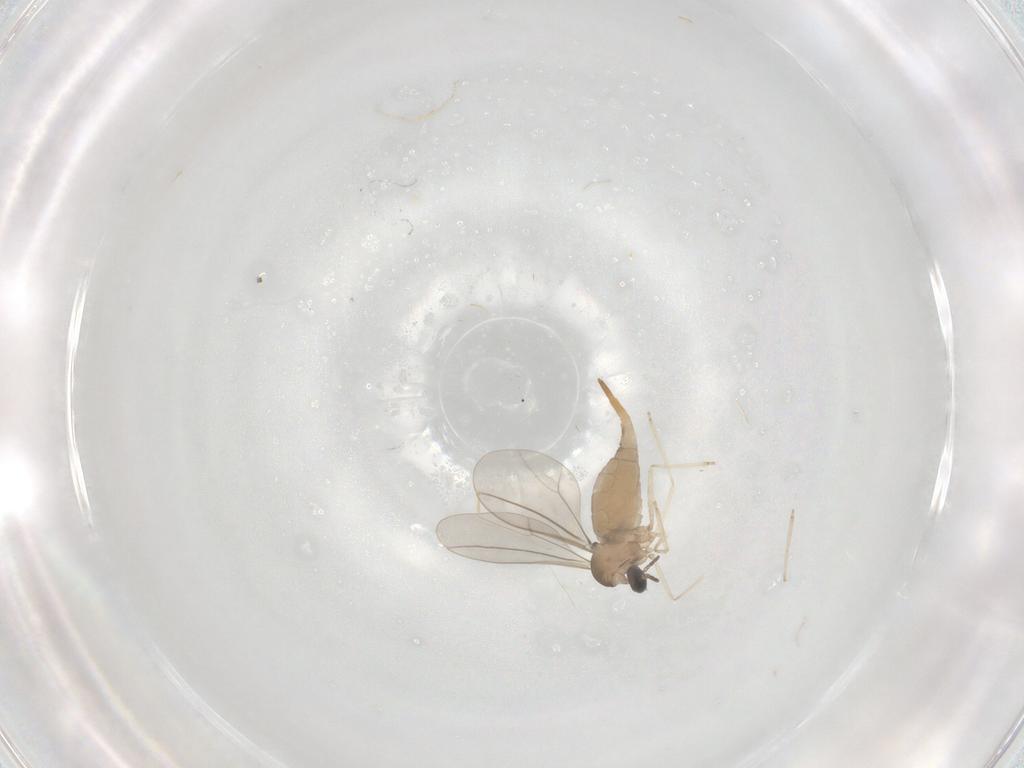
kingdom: Animalia
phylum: Arthropoda
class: Insecta
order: Diptera
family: Cecidomyiidae
